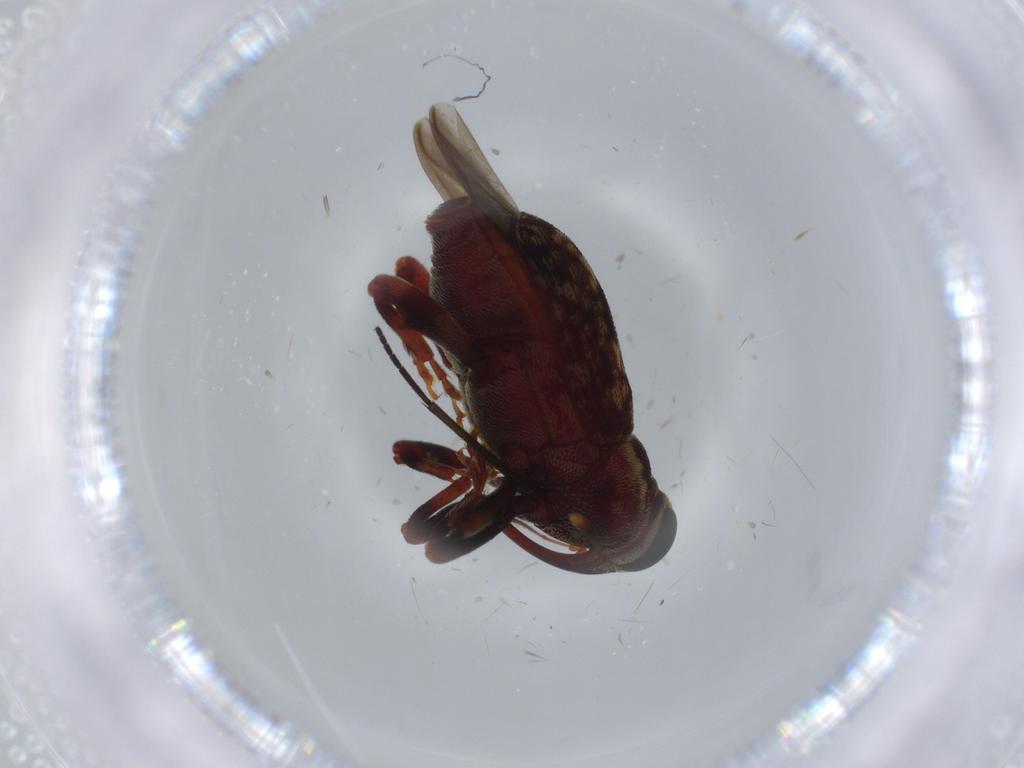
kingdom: Animalia
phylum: Arthropoda
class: Insecta
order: Coleoptera
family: Curculionidae
